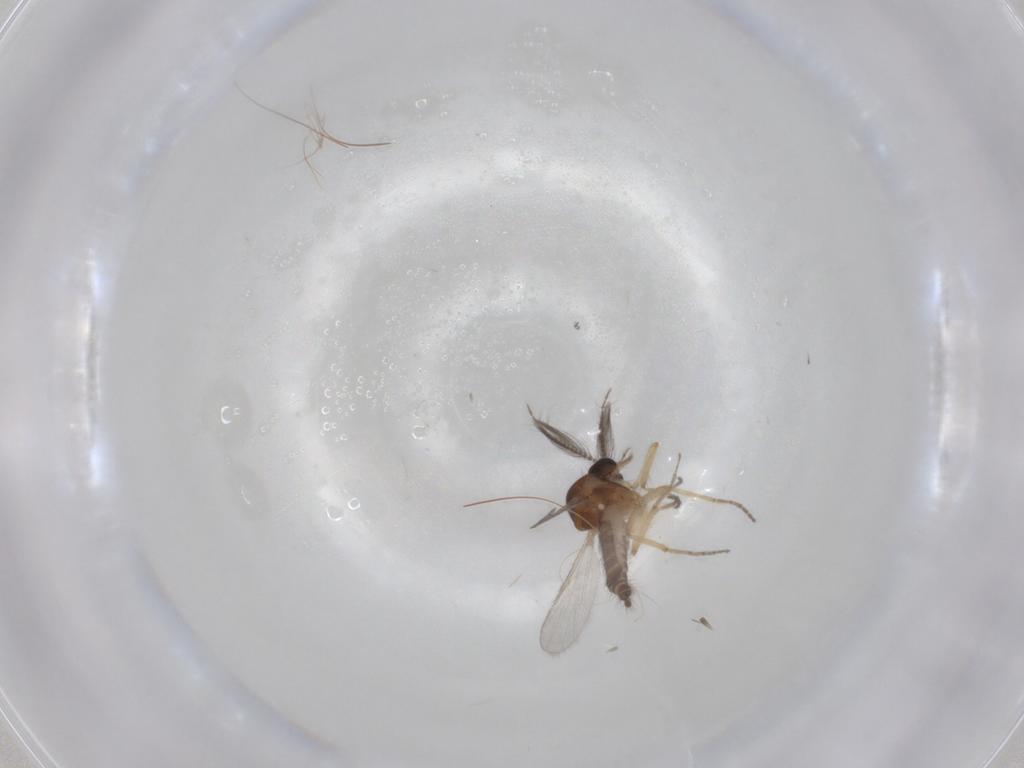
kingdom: Animalia
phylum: Arthropoda
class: Insecta
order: Diptera
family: Ceratopogonidae
